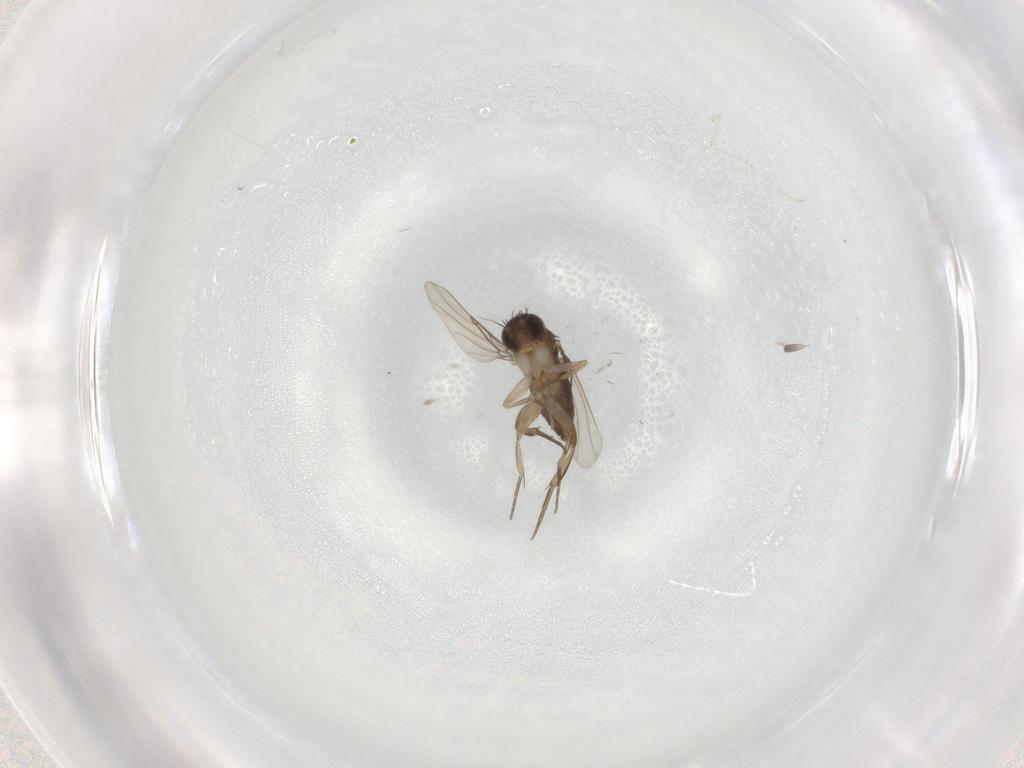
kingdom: Animalia
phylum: Arthropoda
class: Insecta
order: Diptera
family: Phoridae
